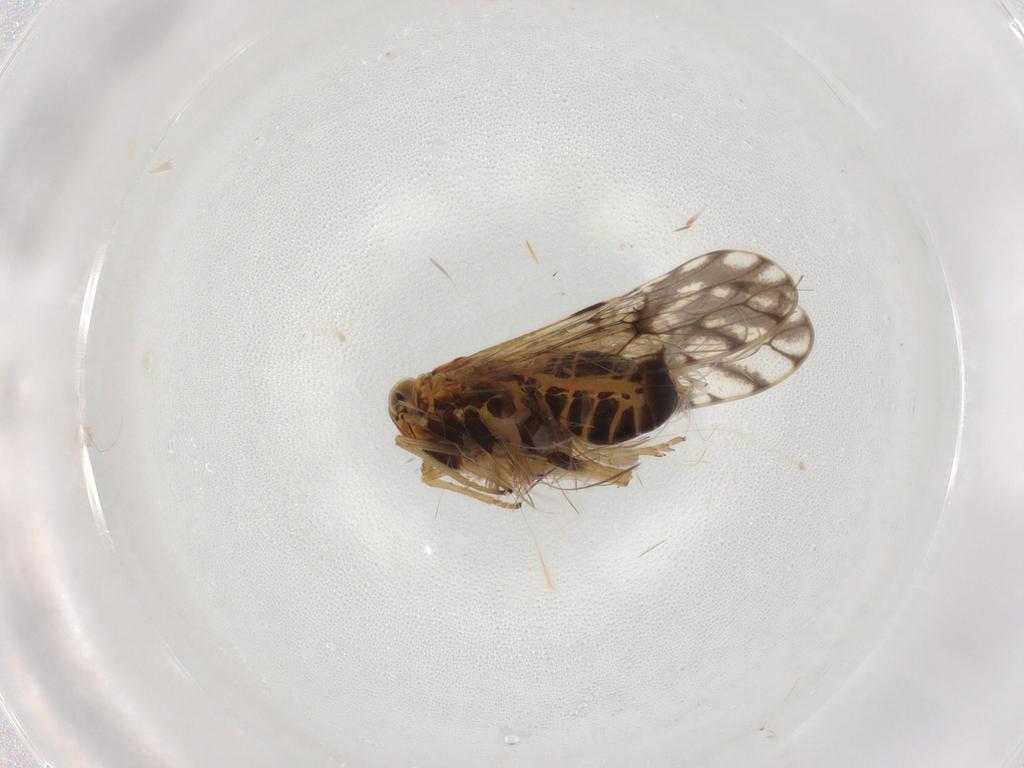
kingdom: Animalia
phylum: Arthropoda
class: Insecta
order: Hemiptera
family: Delphacidae
